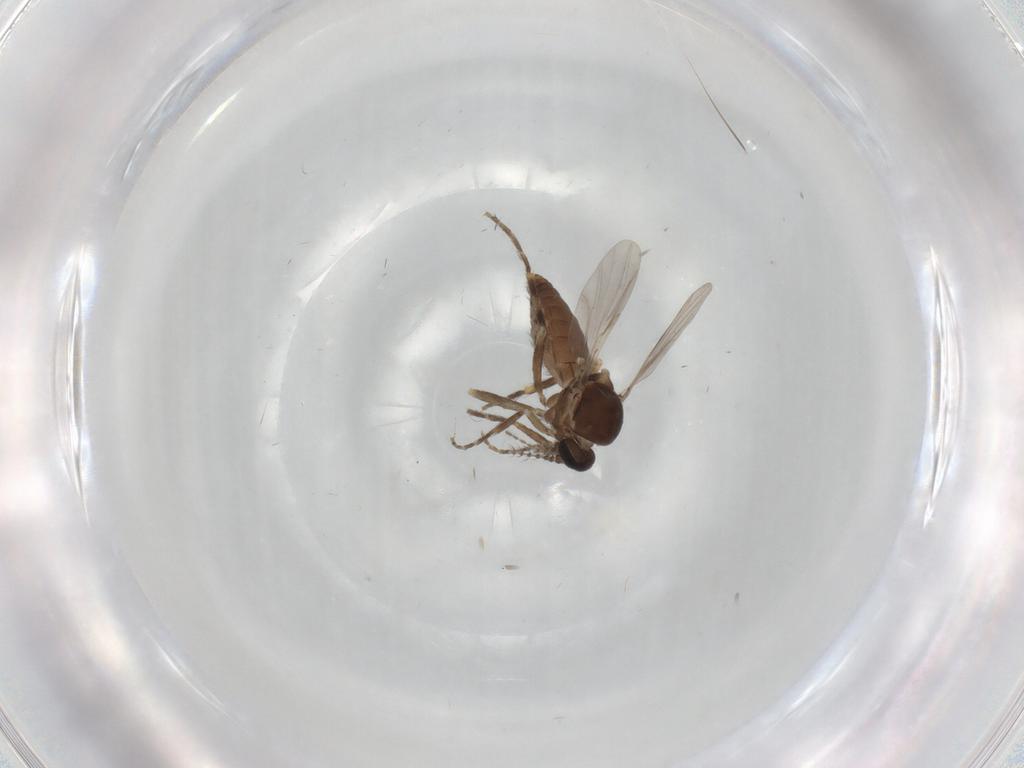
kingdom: Animalia
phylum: Arthropoda
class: Insecta
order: Diptera
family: Ceratopogonidae
